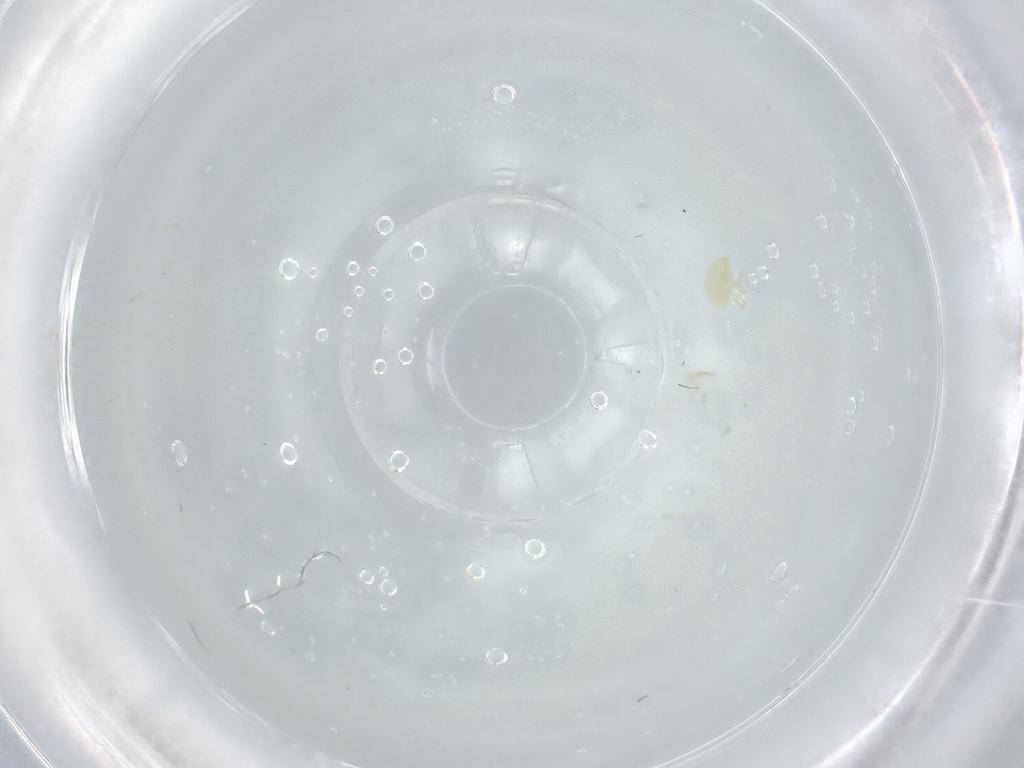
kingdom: Animalia
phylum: Arthropoda
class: Arachnida
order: Trombidiformes
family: Podothrombiidae
